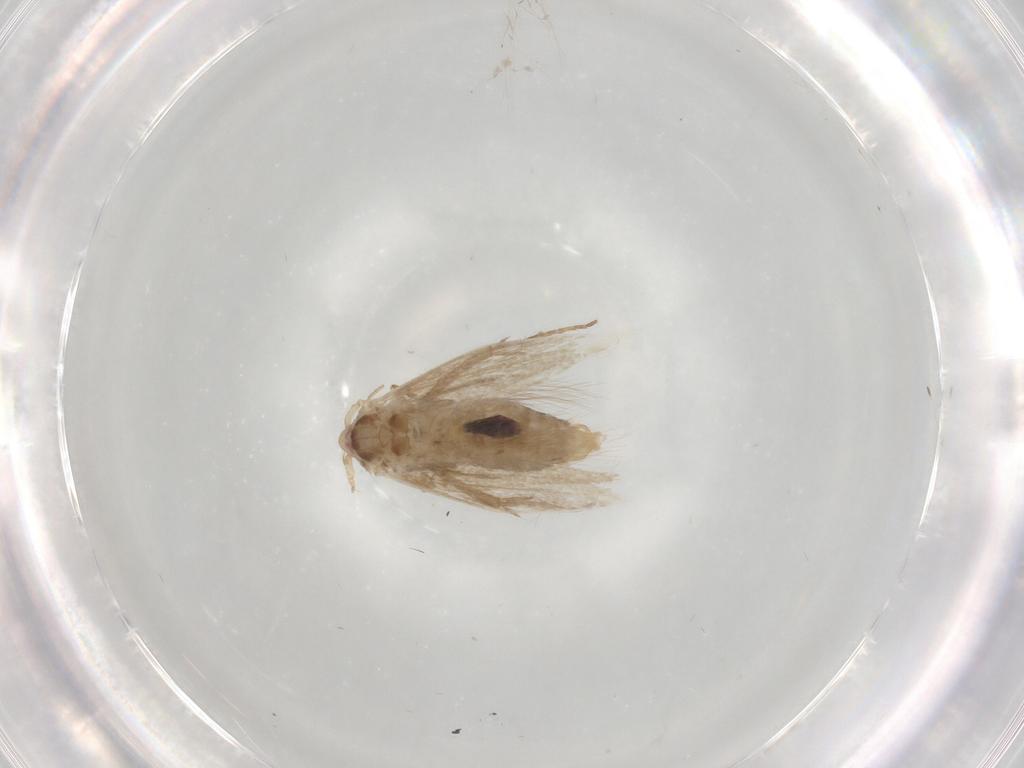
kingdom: Animalia
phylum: Arthropoda
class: Insecta
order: Lepidoptera
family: Bucculatricidae
